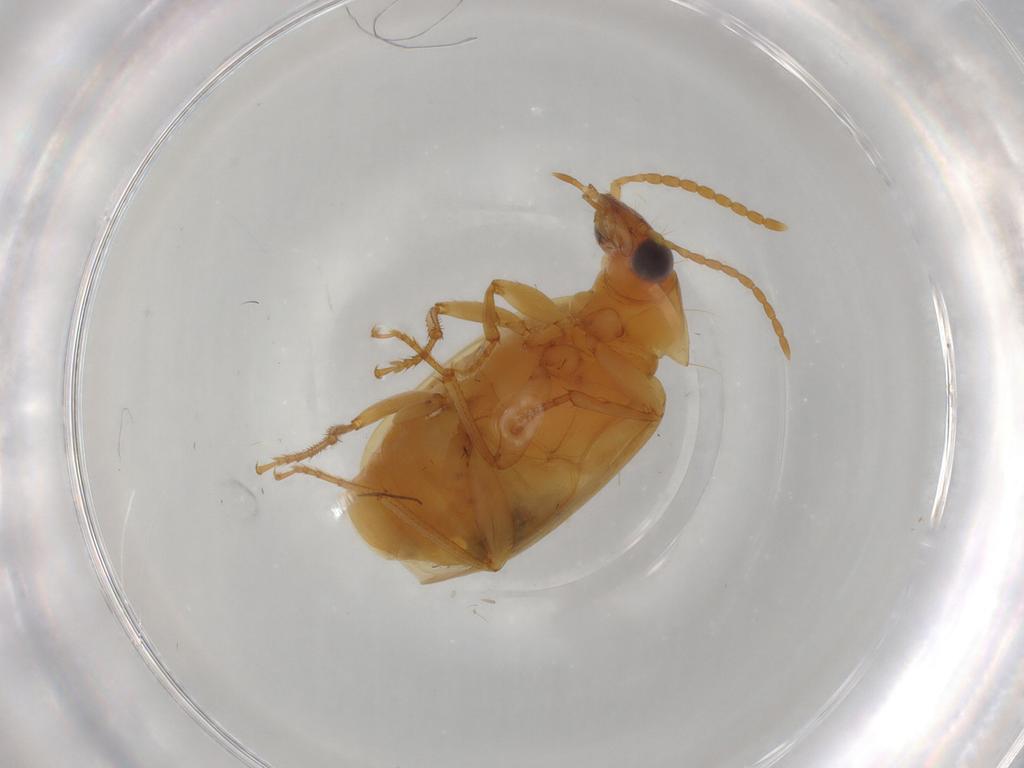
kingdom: Animalia
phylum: Arthropoda
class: Insecta
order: Coleoptera
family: Carabidae
